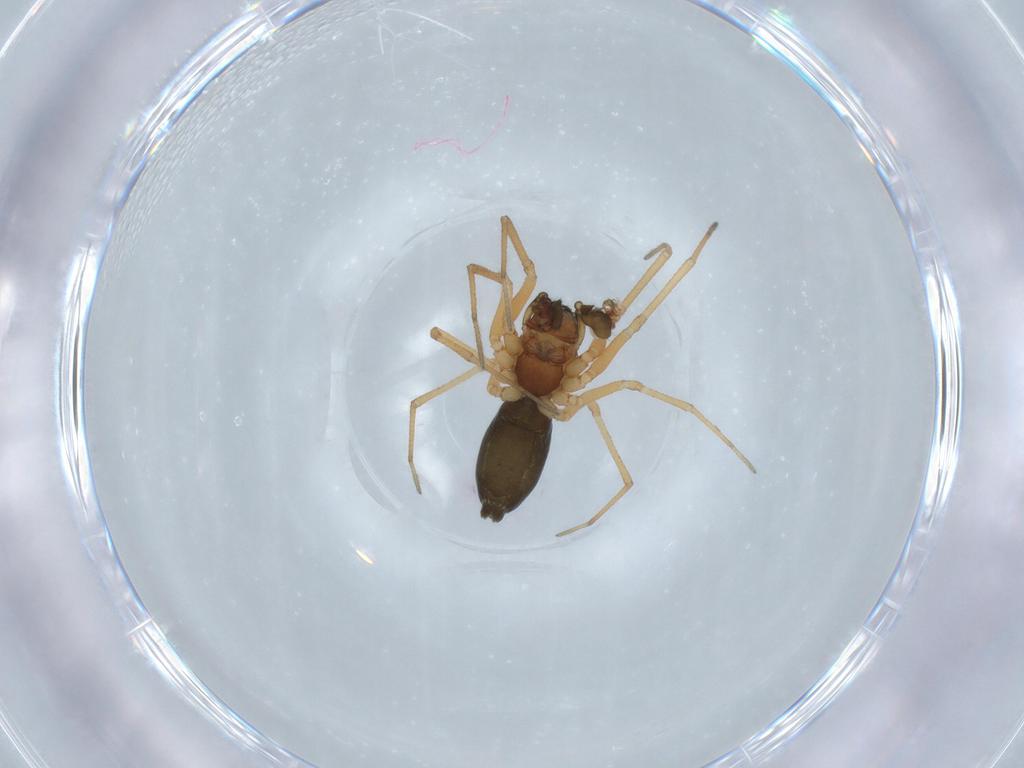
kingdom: Animalia
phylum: Arthropoda
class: Arachnida
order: Araneae
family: Linyphiidae
